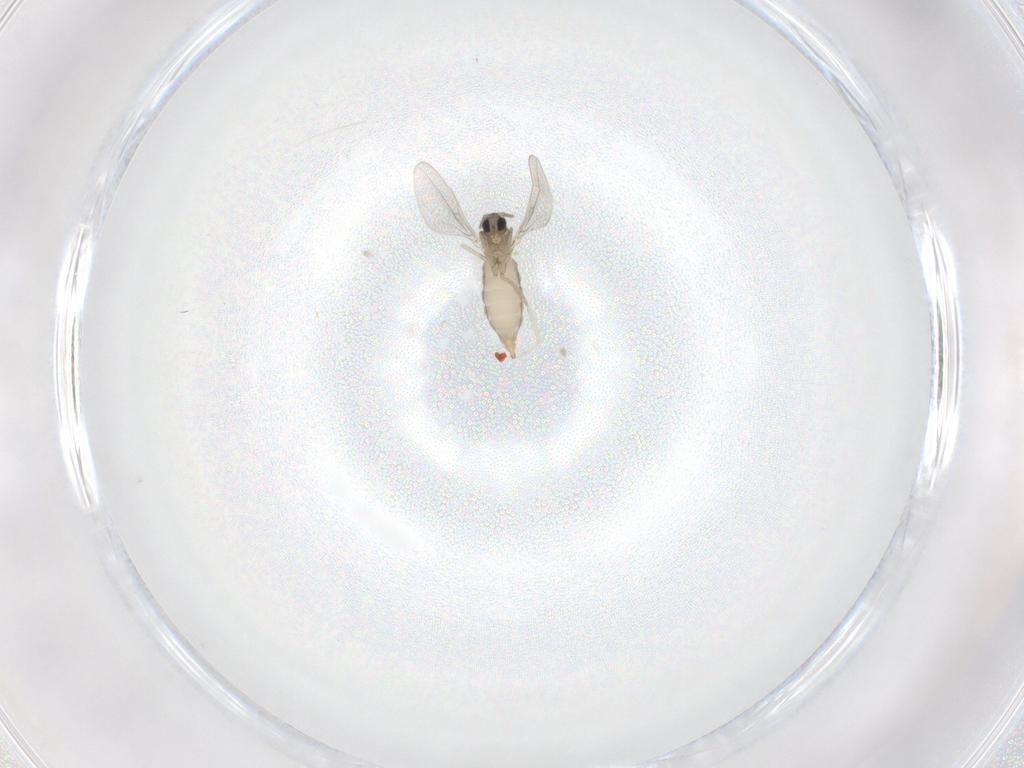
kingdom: Animalia
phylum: Arthropoda
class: Insecta
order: Diptera
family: Cecidomyiidae
